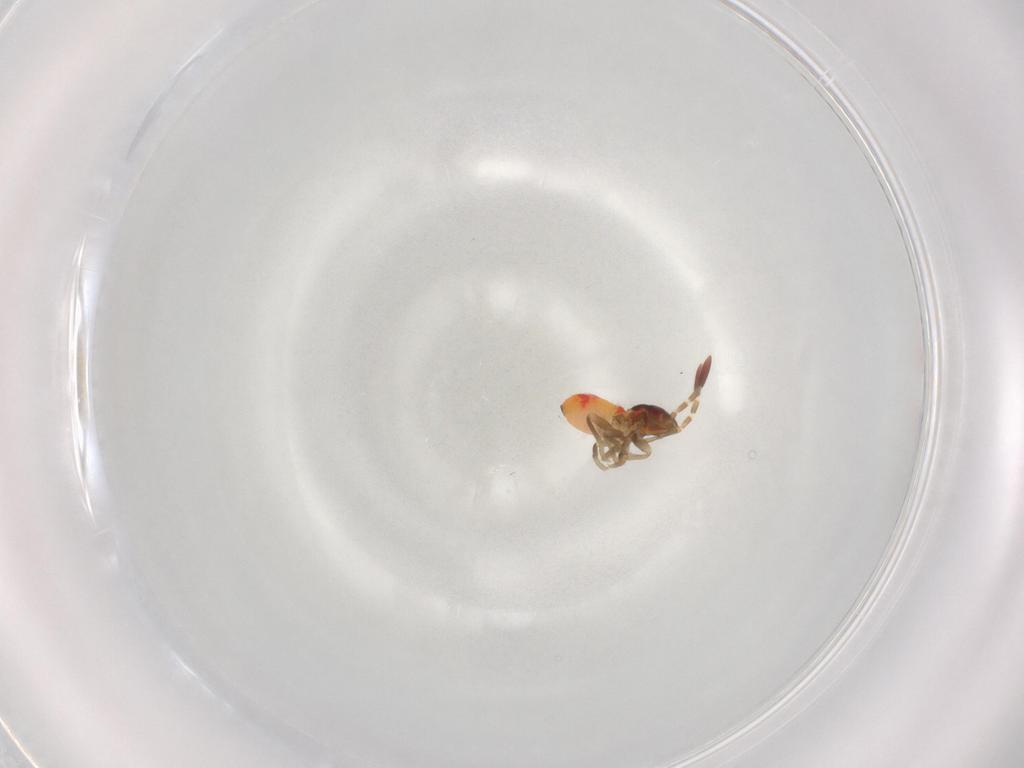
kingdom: Animalia
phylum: Arthropoda
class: Insecta
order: Hemiptera
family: Rhyparochromidae
